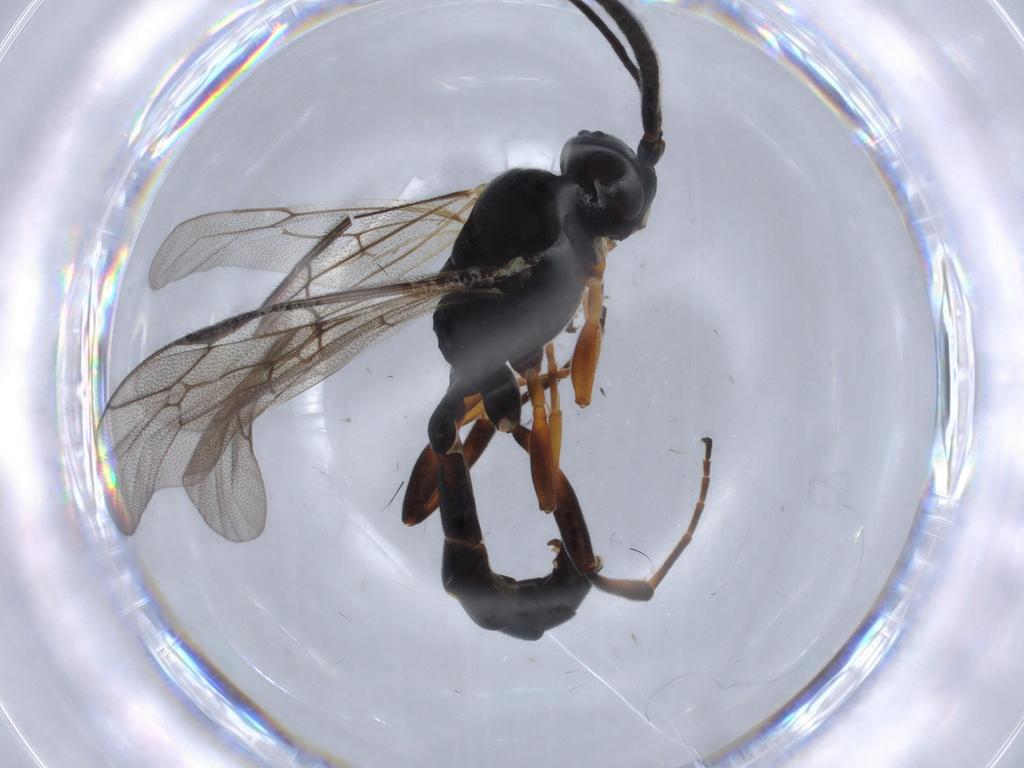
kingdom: Animalia
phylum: Arthropoda
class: Insecta
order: Hymenoptera
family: Ichneumonidae
